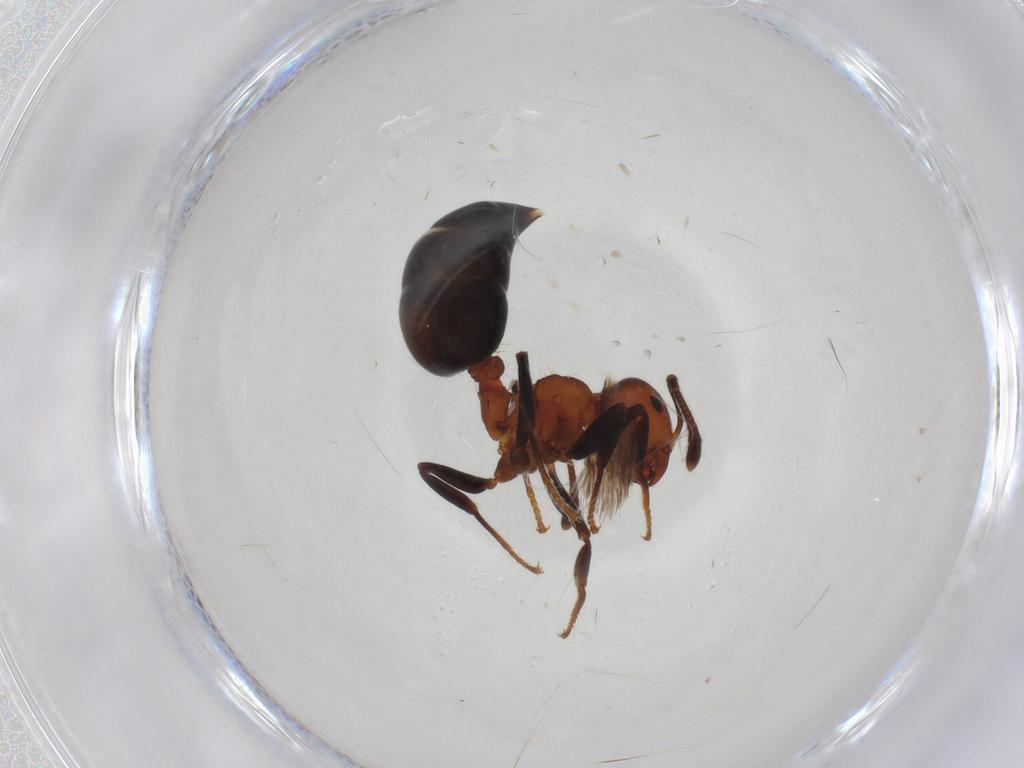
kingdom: Animalia
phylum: Arthropoda
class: Insecta
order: Hymenoptera
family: Formicidae
